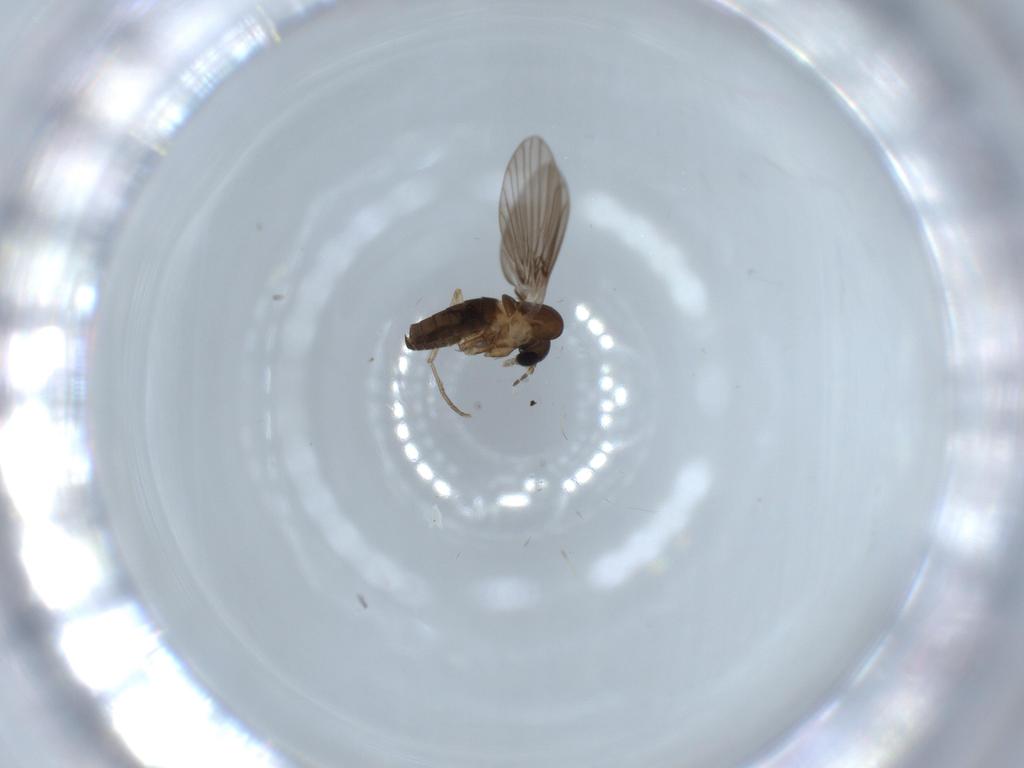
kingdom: Animalia
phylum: Arthropoda
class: Insecta
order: Diptera
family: Psychodidae
